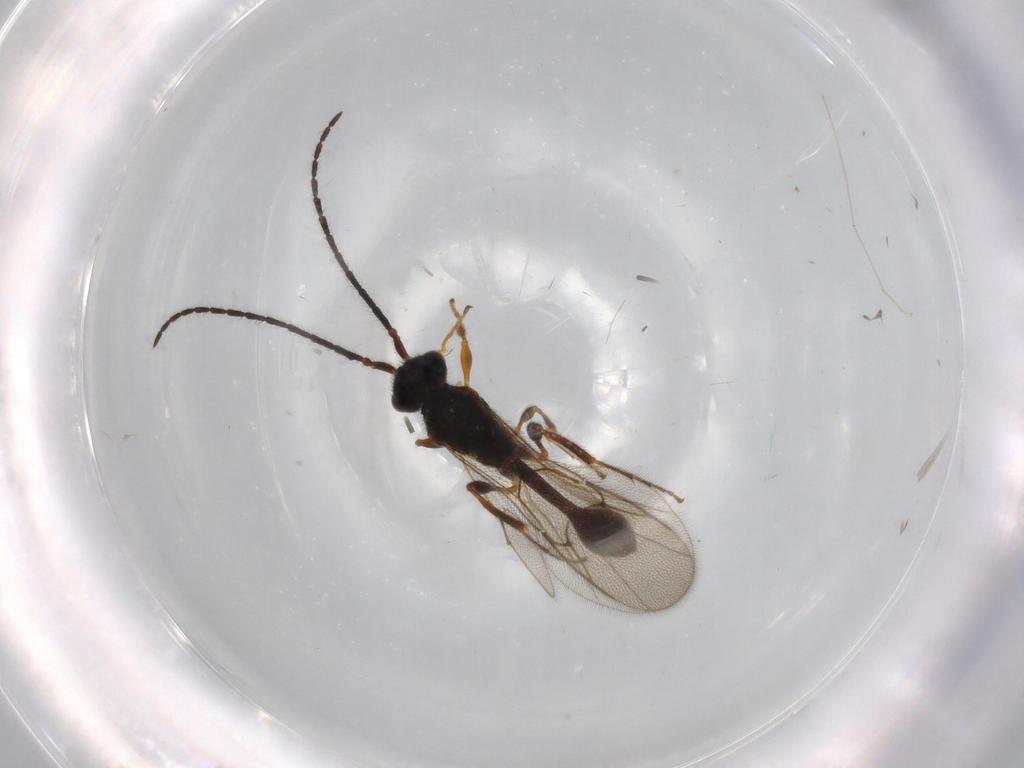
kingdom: Animalia
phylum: Arthropoda
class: Insecta
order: Hymenoptera
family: Diapriidae
